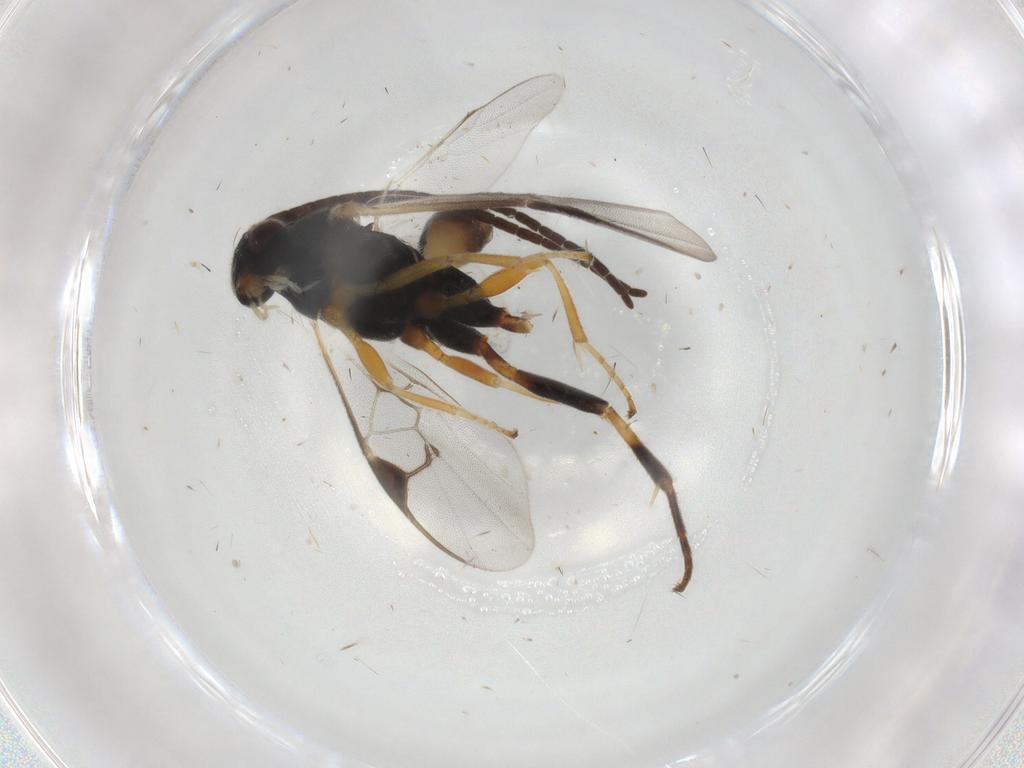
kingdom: Animalia
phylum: Arthropoda
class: Insecta
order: Hymenoptera
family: Braconidae
